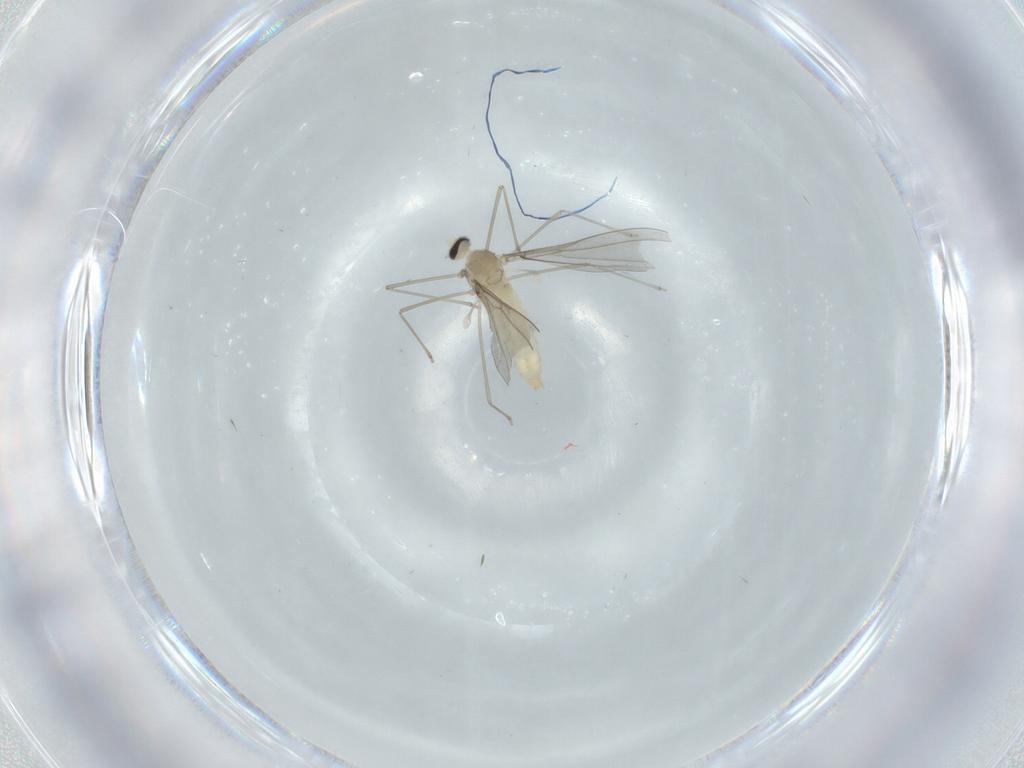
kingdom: Animalia
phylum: Arthropoda
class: Insecta
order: Diptera
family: Cecidomyiidae
